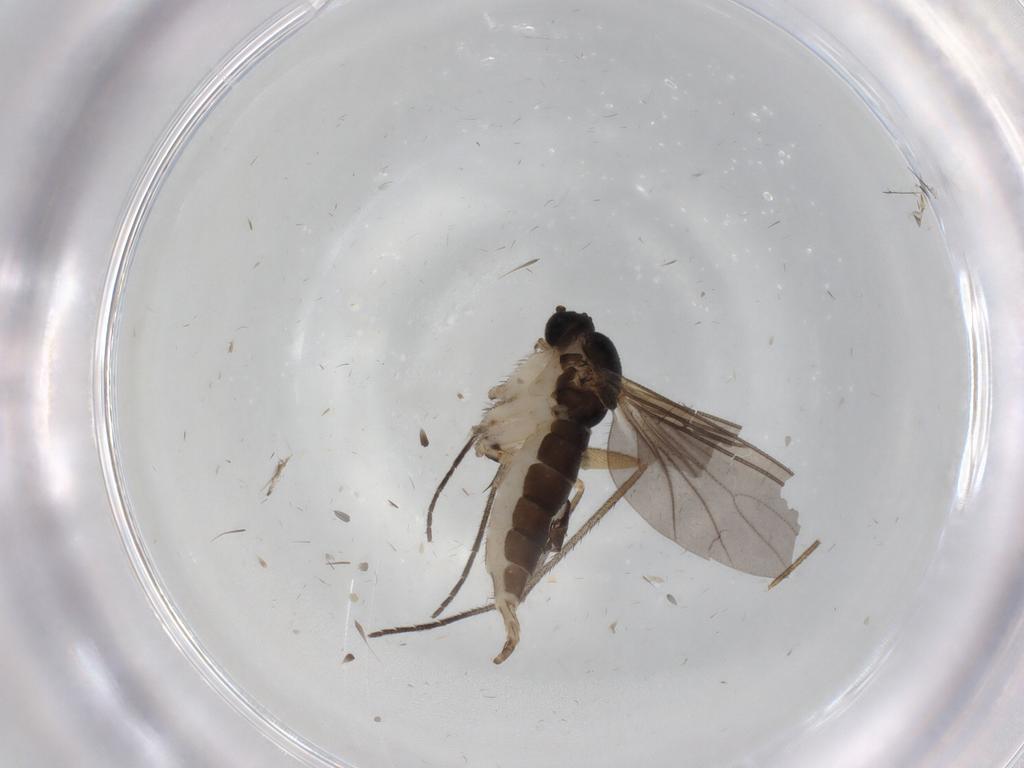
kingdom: Animalia
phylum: Arthropoda
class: Insecta
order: Diptera
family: Sciaridae
